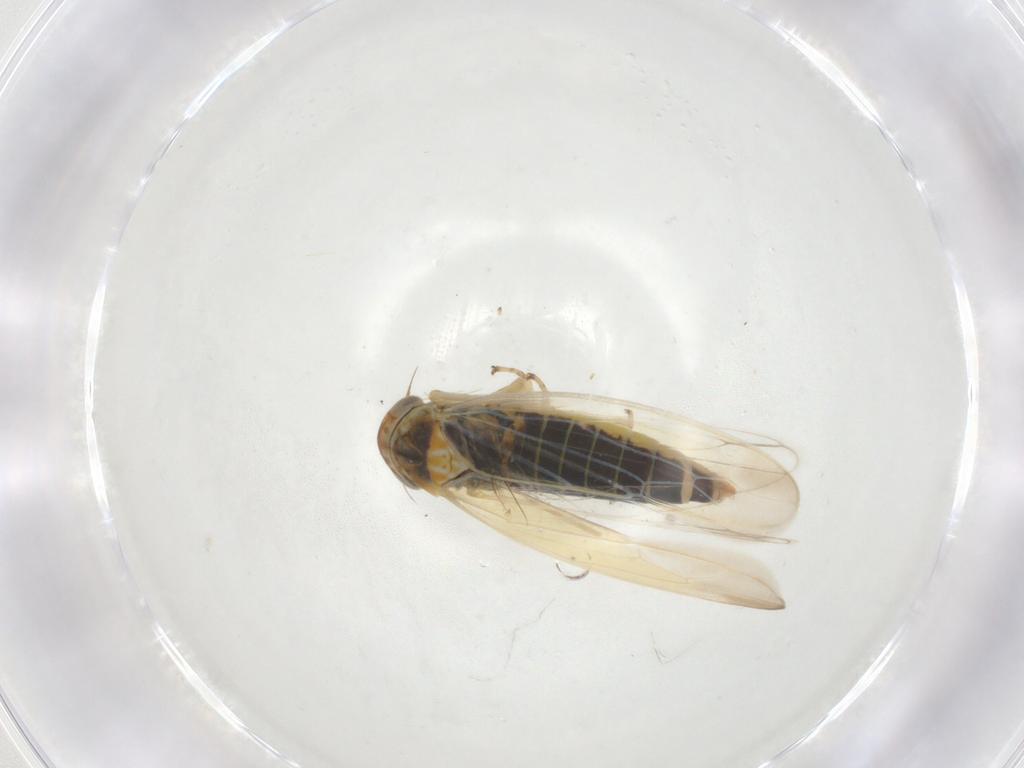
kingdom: Animalia
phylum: Arthropoda
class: Insecta
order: Hemiptera
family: Cicadellidae
